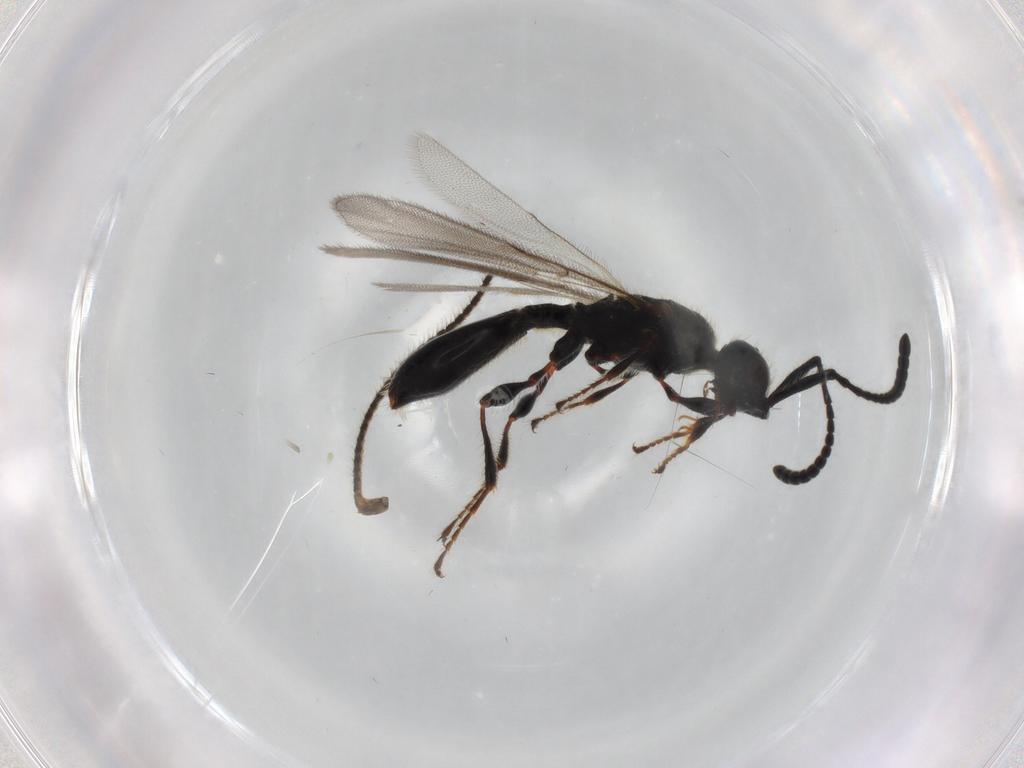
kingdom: Animalia
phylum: Arthropoda
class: Insecta
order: Hymenoptera
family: Diapriidae
